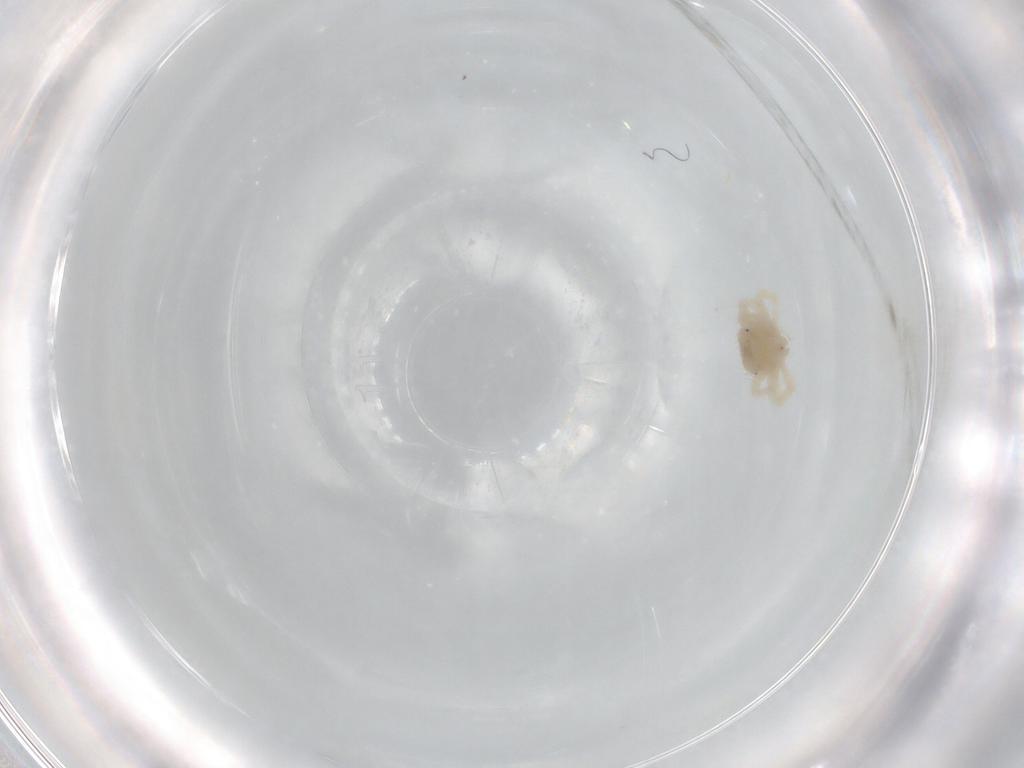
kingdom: Animalia
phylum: Arthropoda
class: Arachnida
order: Trombidiformes
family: Anystidae
